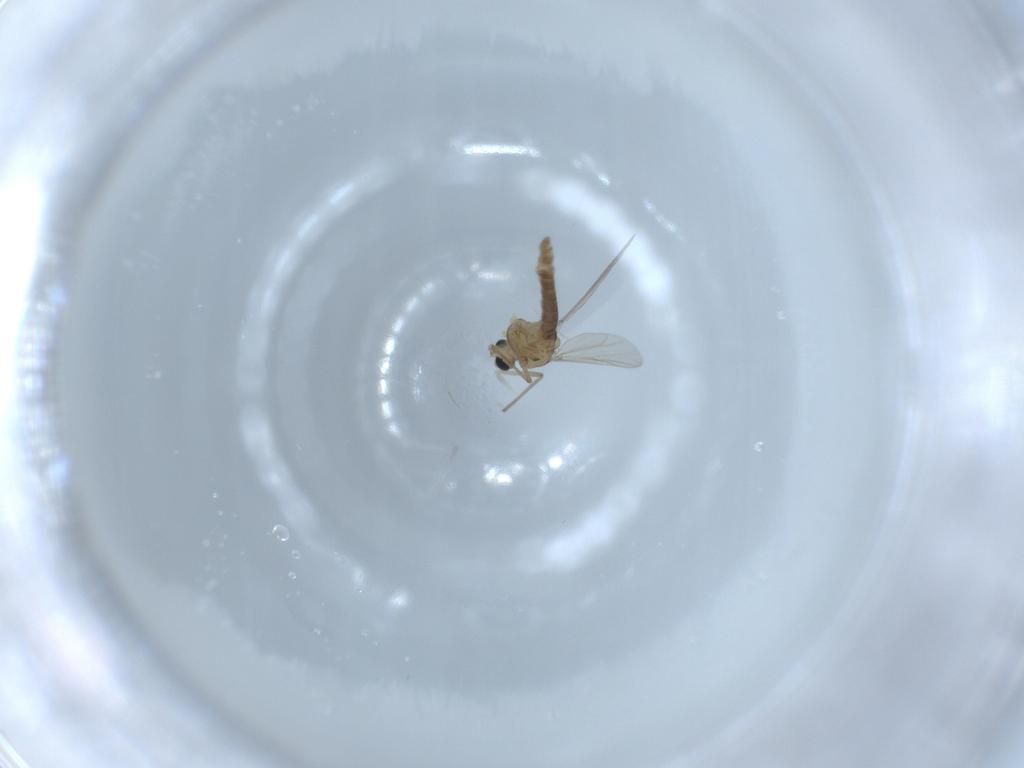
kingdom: Animalia
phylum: Arthropoda
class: Insecta
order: Diptera
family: Chironomidae
